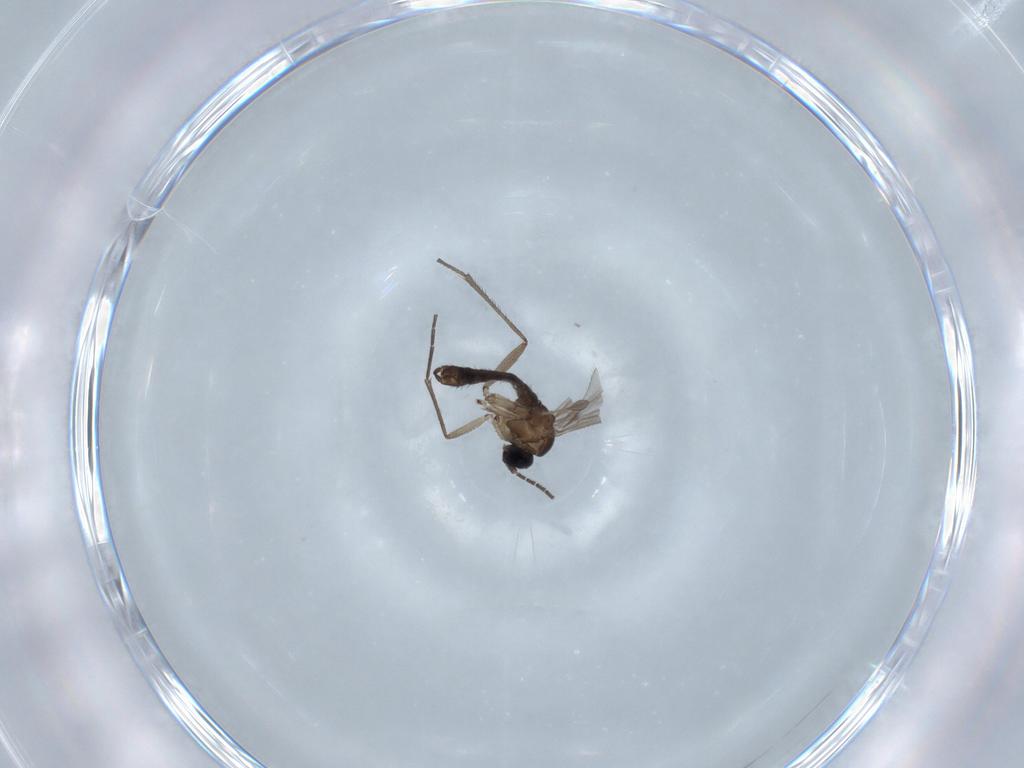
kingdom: Animalia
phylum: Arthropoda
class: Insecta
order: Diptera
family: Sciaridae
